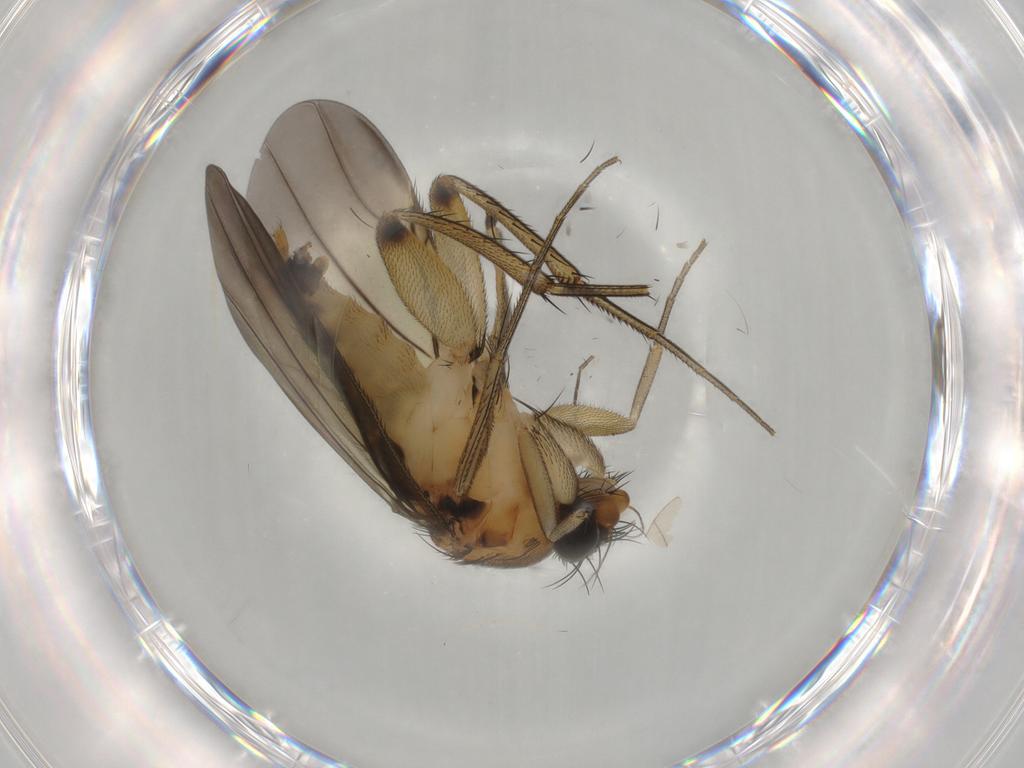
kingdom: Animalia
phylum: Arthropoda
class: Insecta
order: Diptera
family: Phoridae
